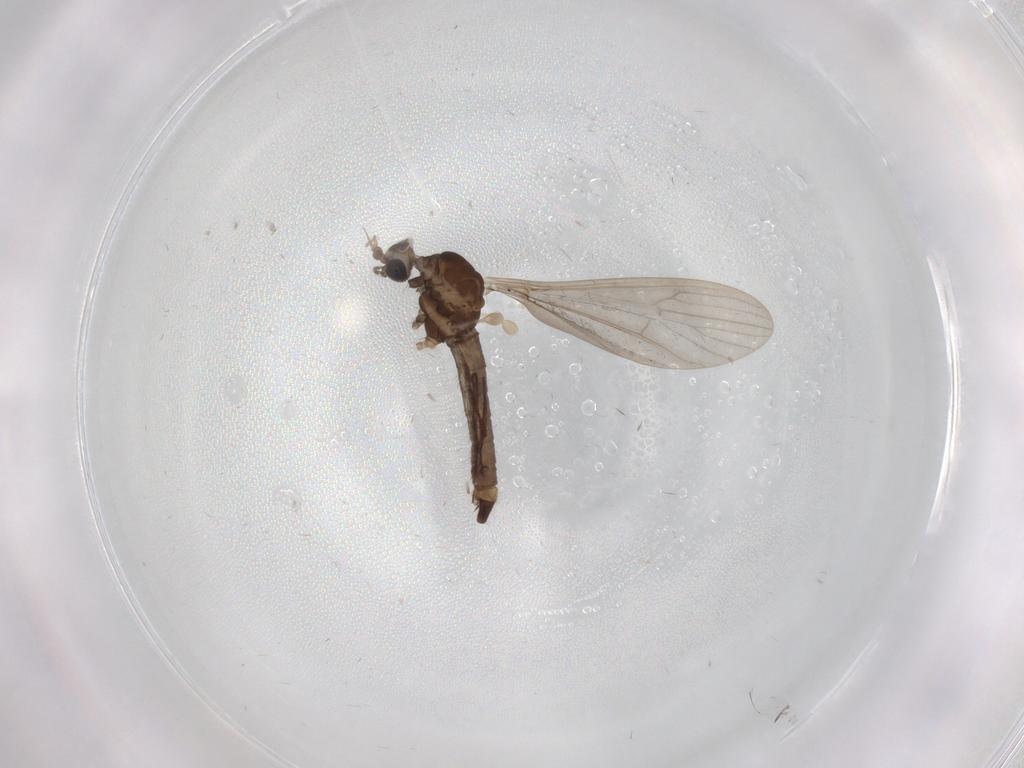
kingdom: Animalia
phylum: Arthropoda
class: Insecta
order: Diptera
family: Limoniidae
